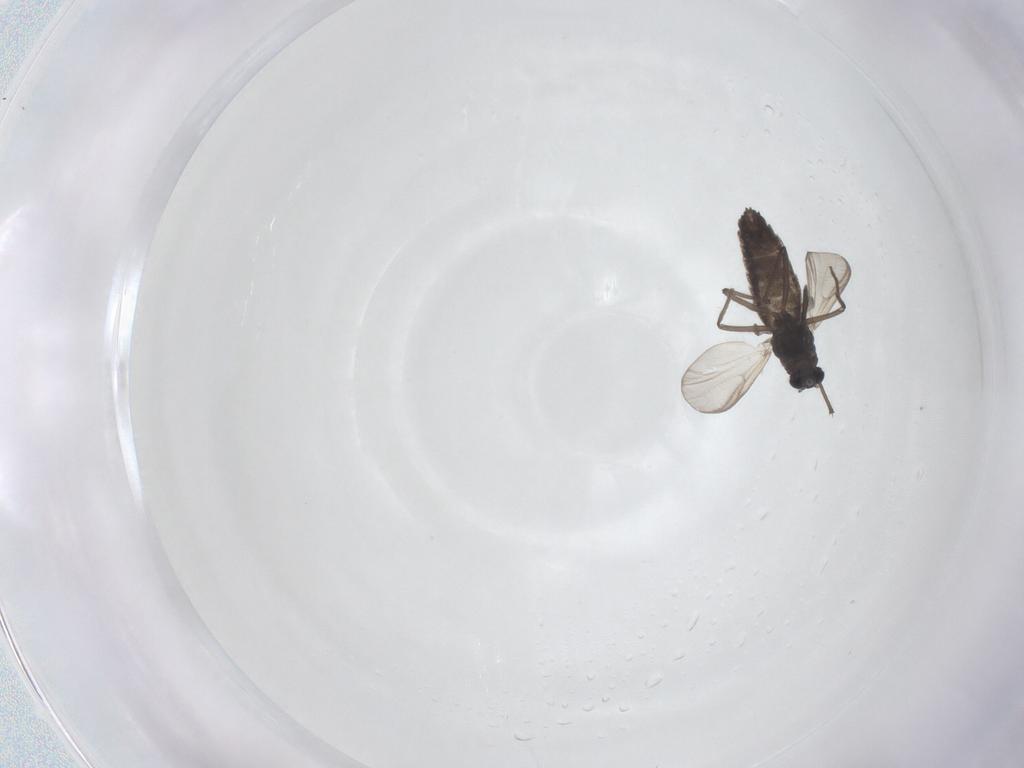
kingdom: Animalia
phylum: Arthropoda
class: Insecta
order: Diptera
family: Cecidomyiidae
